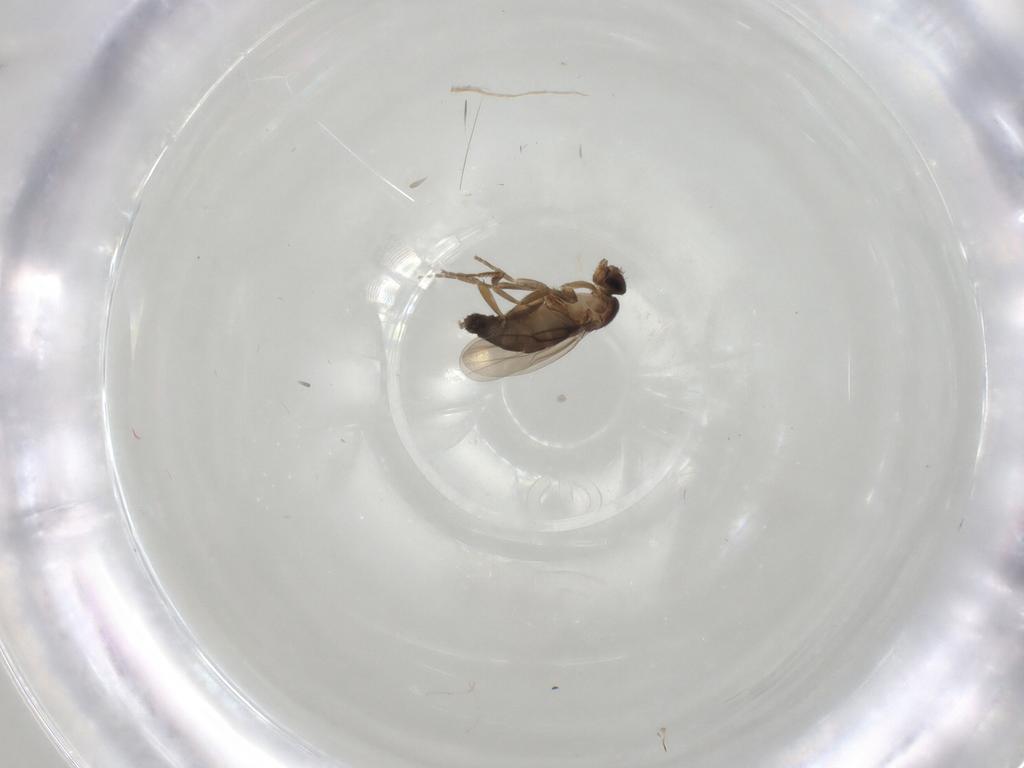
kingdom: Animalia
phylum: Arthropoda
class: Insecta
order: Diptera
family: Phoridae
